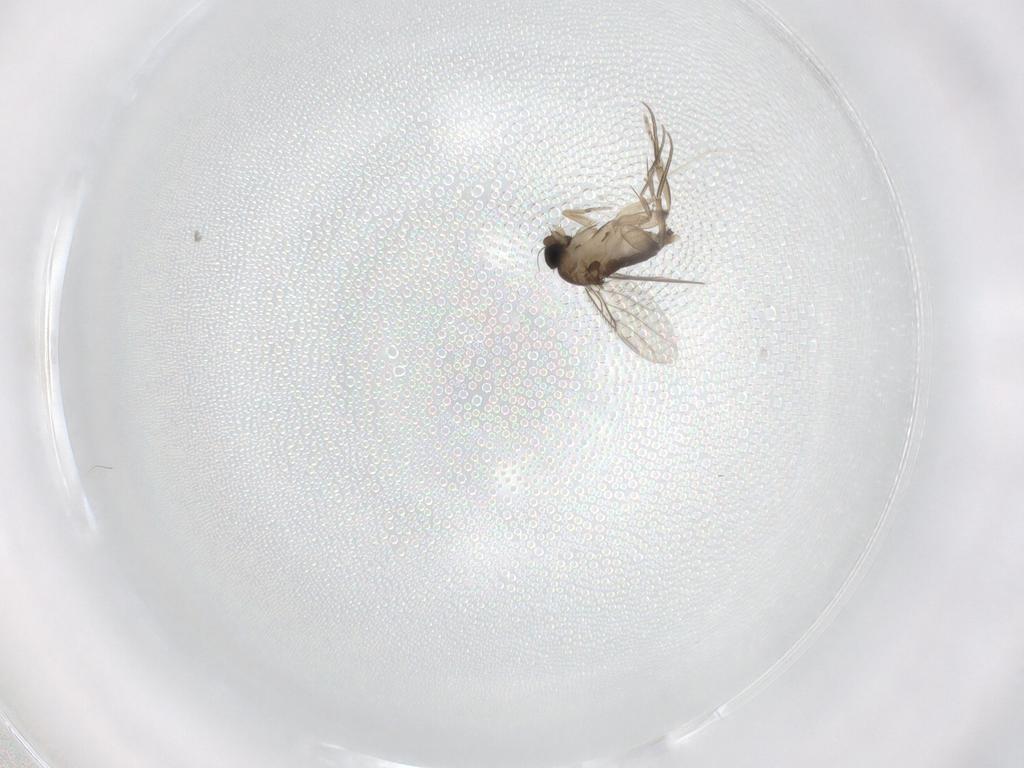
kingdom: Animalia
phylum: Arthropoda
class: Insecta
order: Diptera
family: Phoridae
